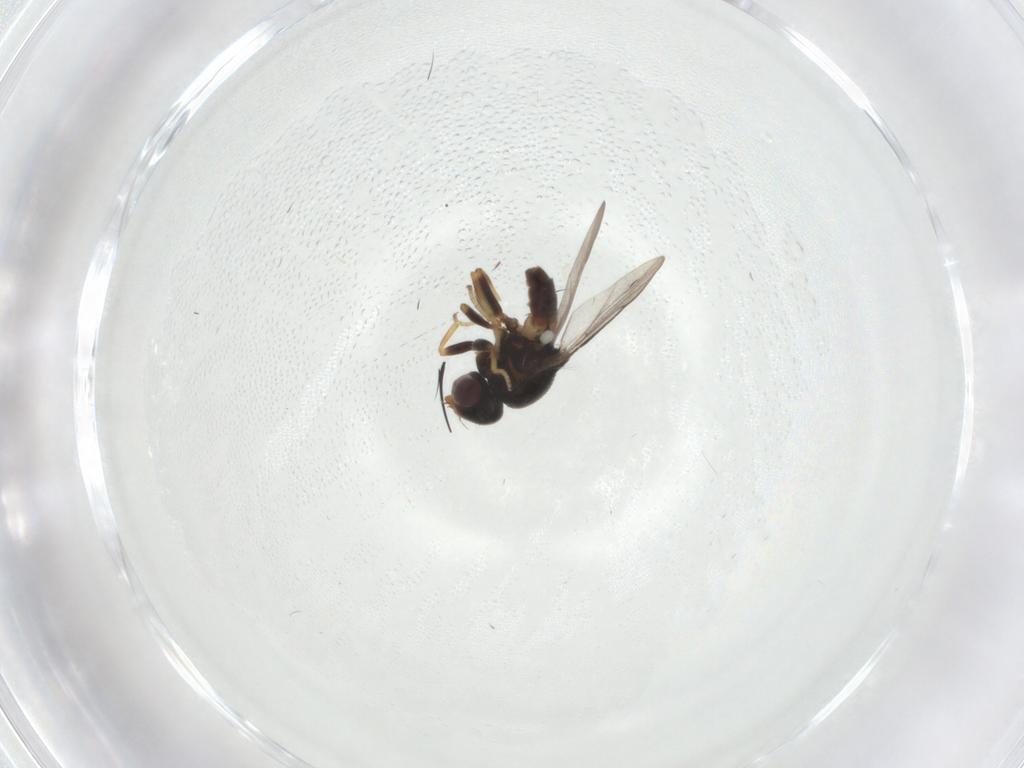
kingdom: Animalia
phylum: Arthropoda
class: Insecta
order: Diptera
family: Chloropidae
